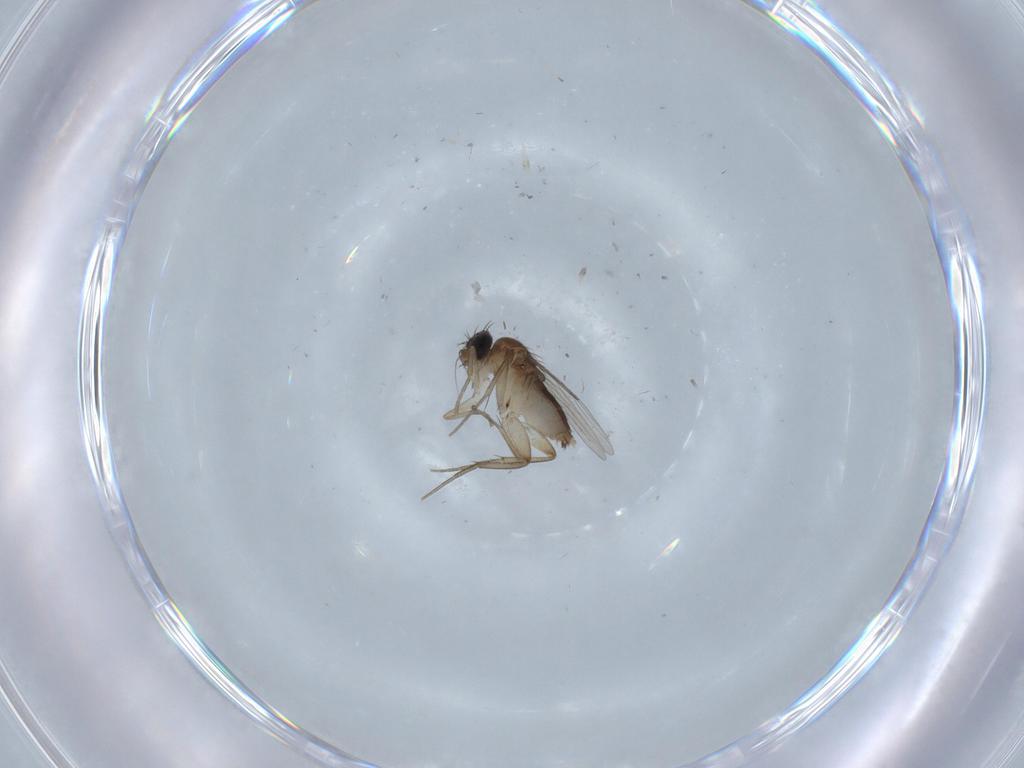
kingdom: Animalia
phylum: Arthropoda
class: Insecta
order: Diptera
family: Phoridae
